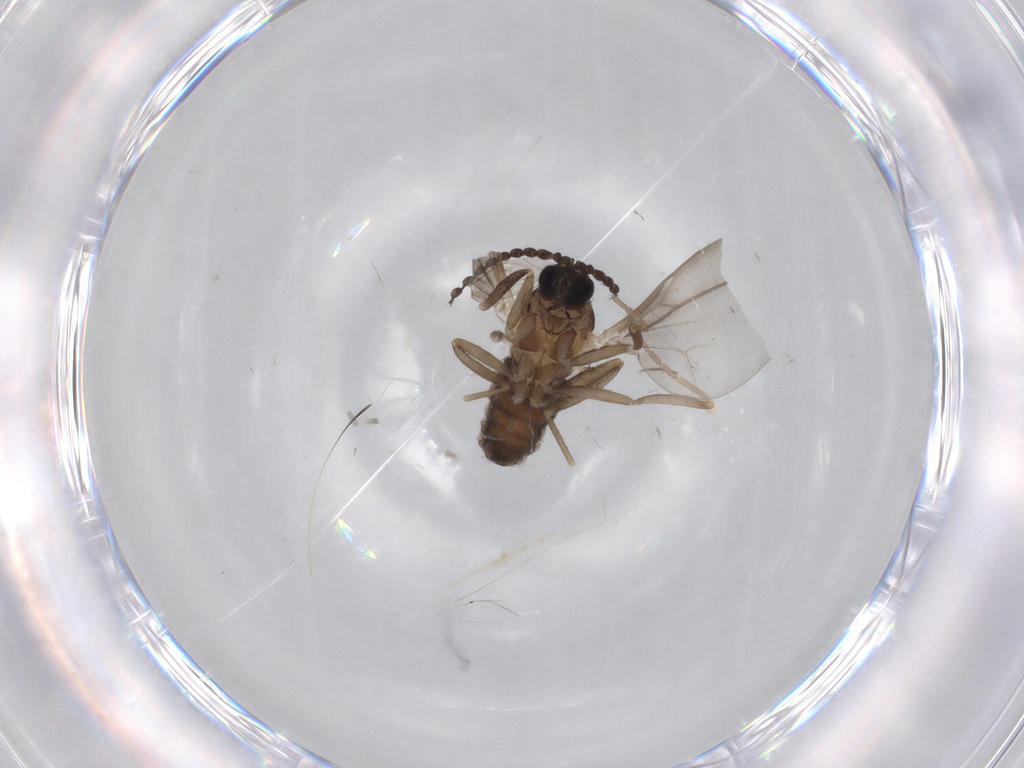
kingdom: Animalia
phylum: Arthropoda
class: Insecta
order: Diptera
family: Cecidomyiidae
